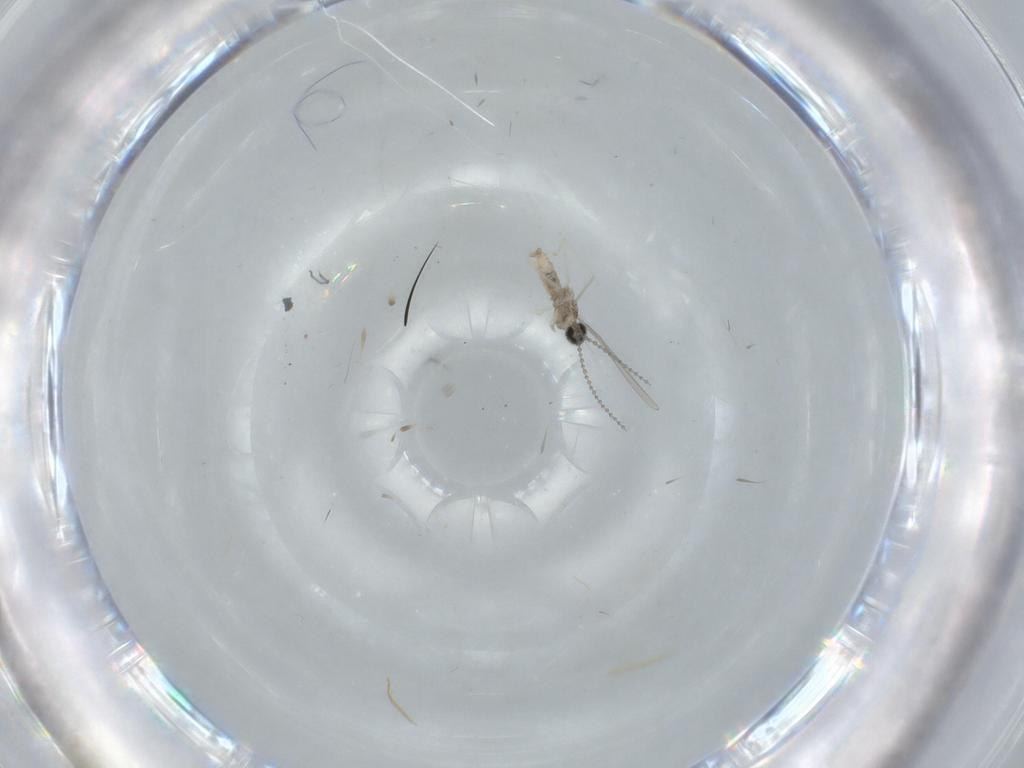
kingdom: Animalia
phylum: Arthropoda
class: Insecta
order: Diptera
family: Cecidomyiidae
